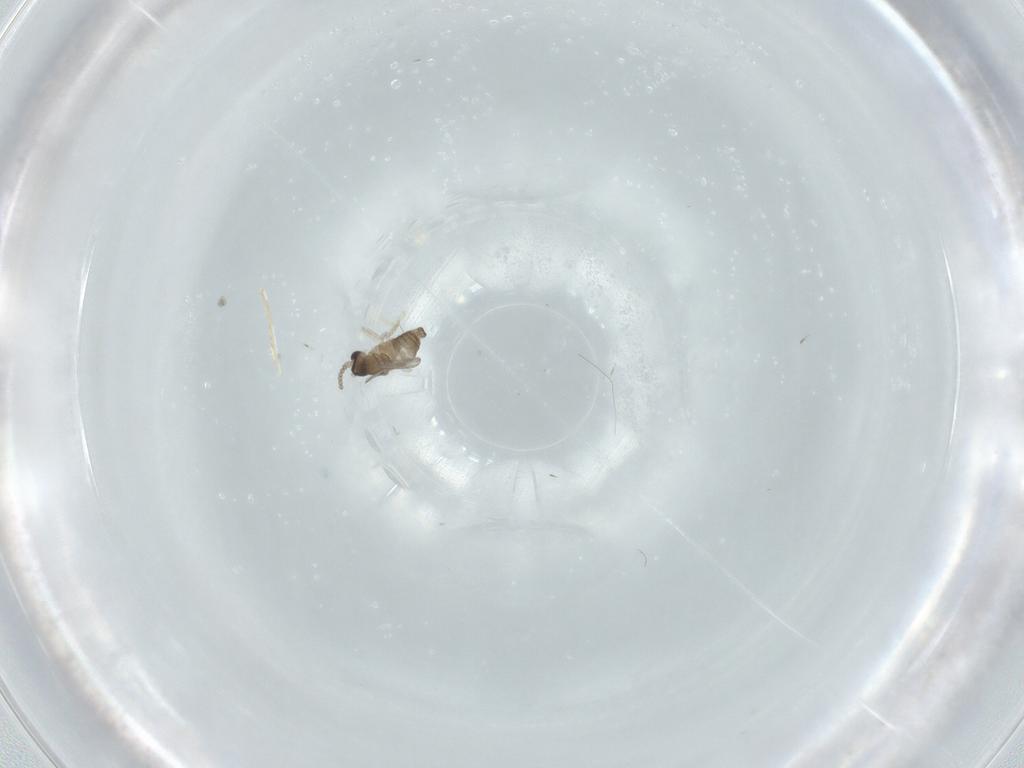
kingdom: Animalia
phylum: Arthropoda
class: Insecta
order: Diptera
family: Cecidomyiidae
